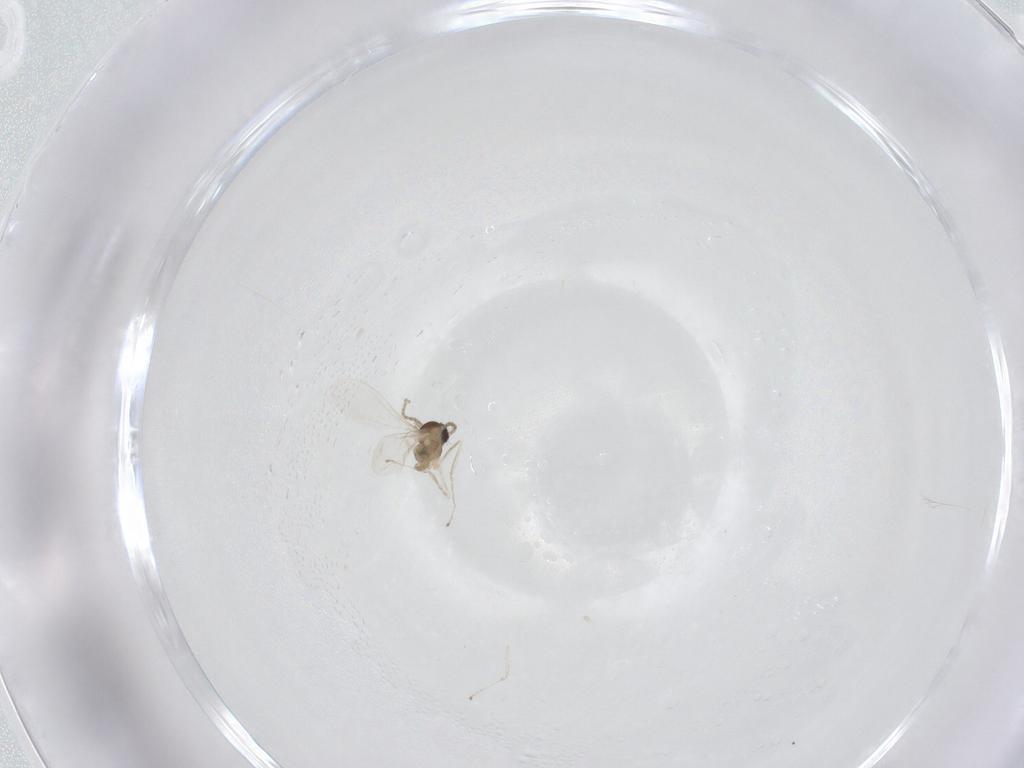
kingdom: Animalia
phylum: Arthropoda
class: Insecta
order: Diptera
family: Cecidomyiidae
